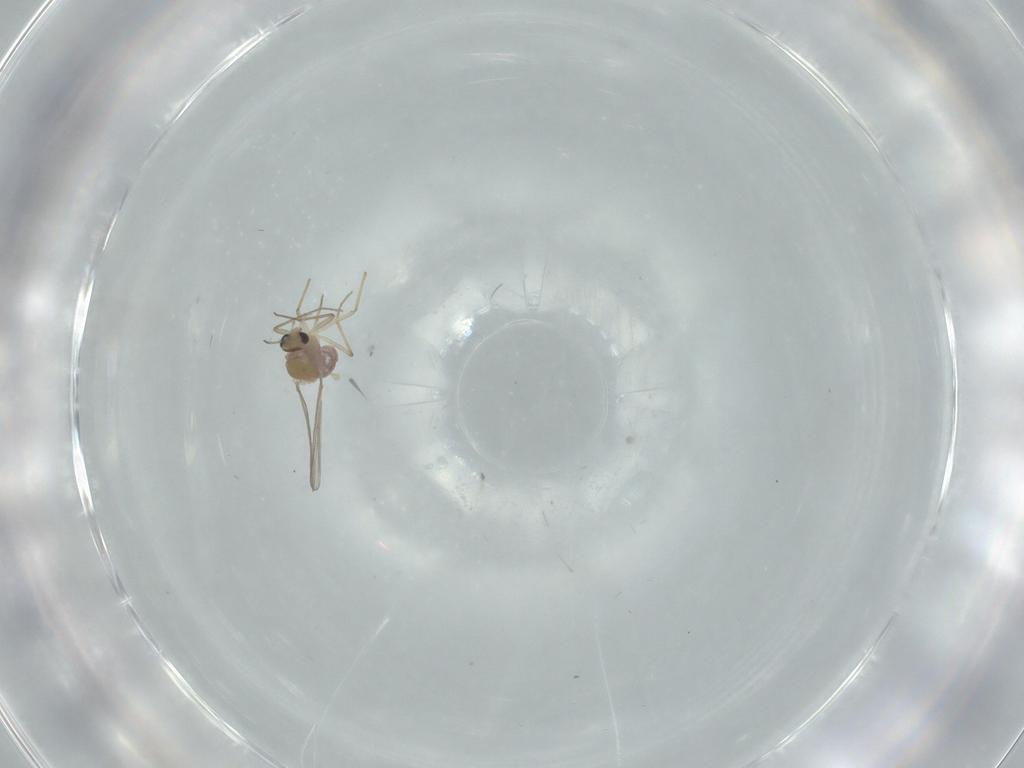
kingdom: Animalia
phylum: Arthropoda
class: Insecta
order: Diptera
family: Chironomidae
